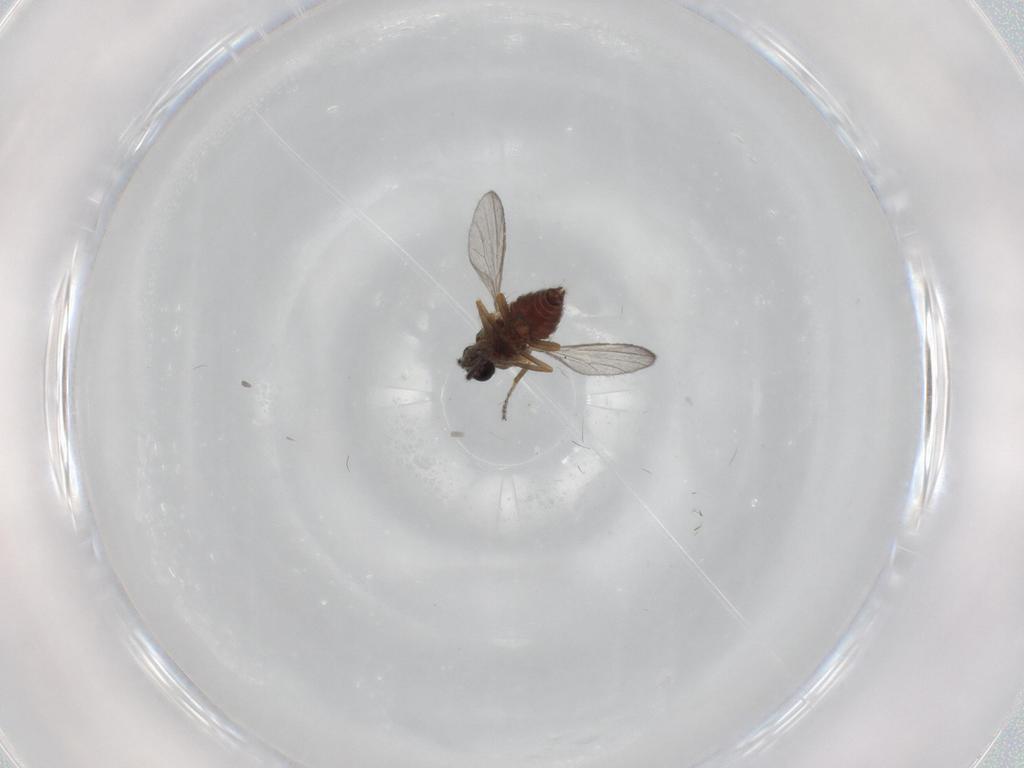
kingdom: Animalia
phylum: Arthropoda
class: Insecta
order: Diptera
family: Ceratopogonidae
